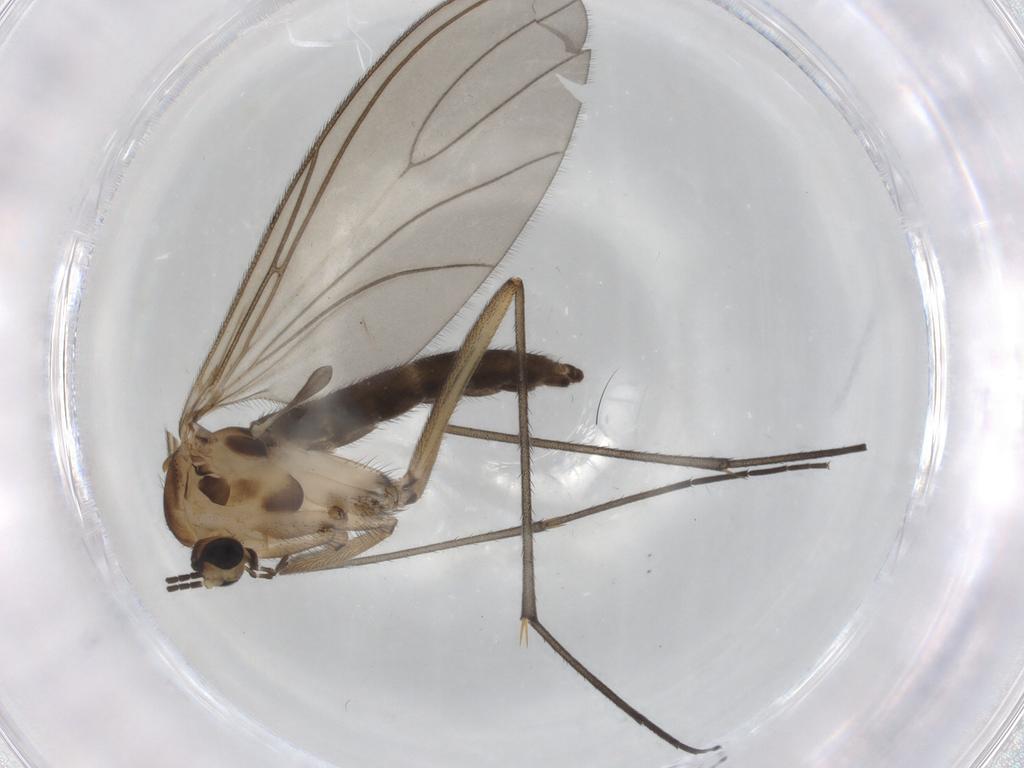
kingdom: Animalia
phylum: Arthropoda
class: Insecta
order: Diptera
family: Sciaridae
